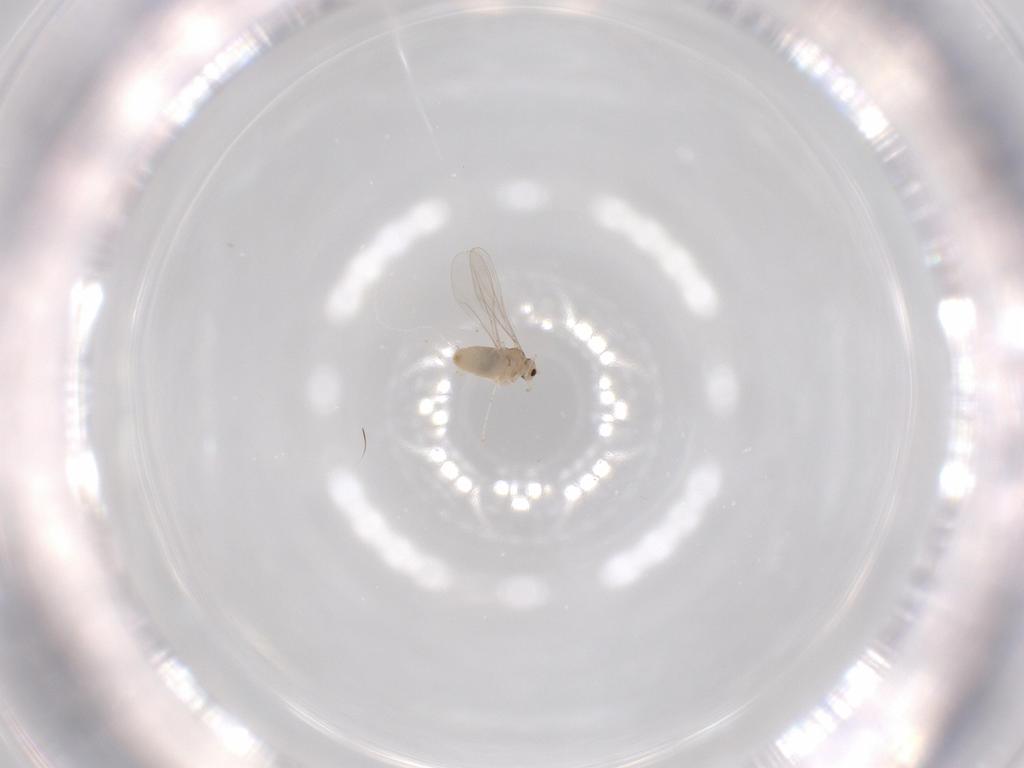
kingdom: Animalia
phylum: Arthropoda
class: Insecta
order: Diptera
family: Cecidomyiidae
